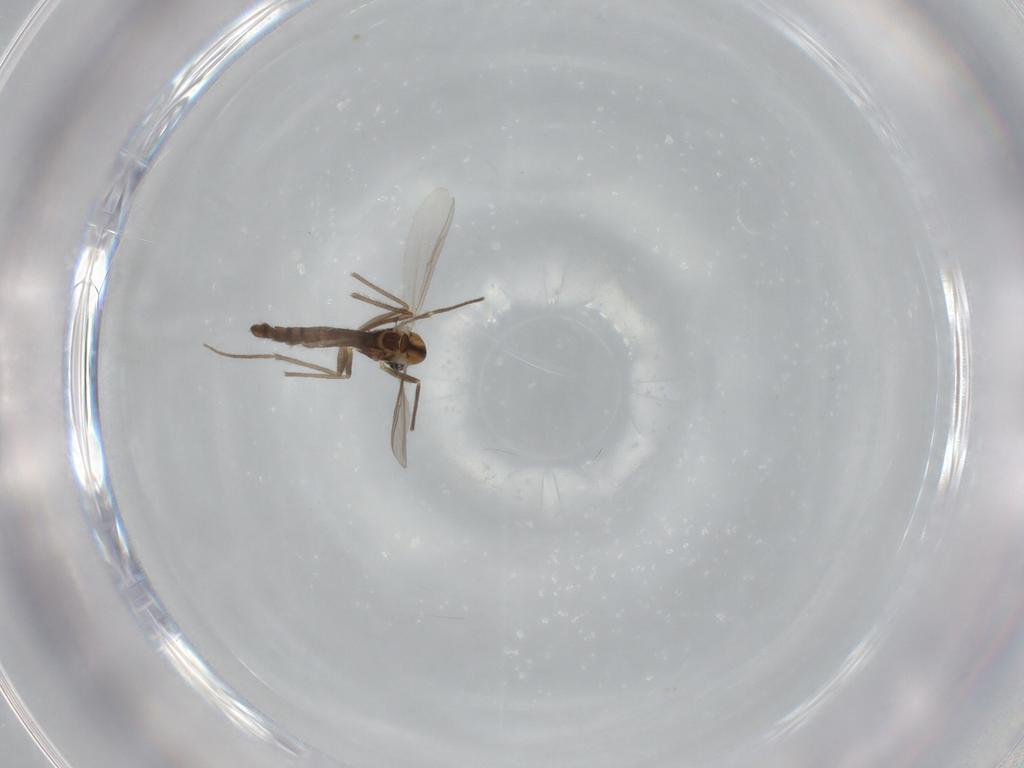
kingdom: Animalia
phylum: Arthropoda
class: Insecta
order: Diptera
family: Chironomidae
